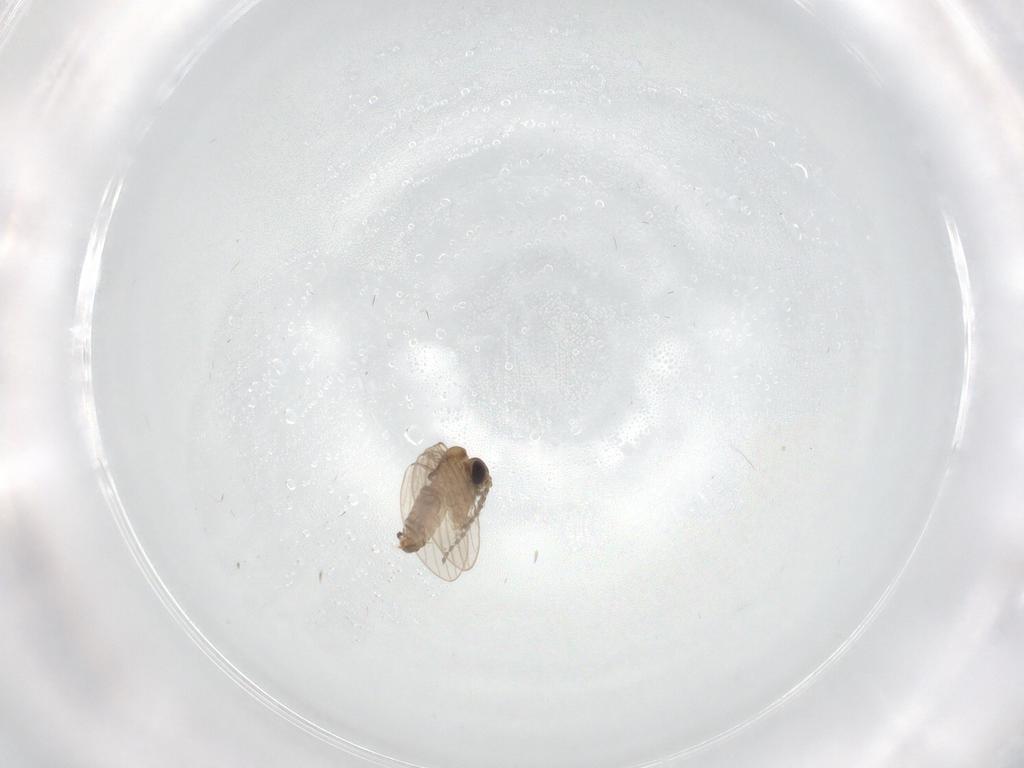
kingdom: Animalia
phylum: Arthropoda
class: Insecta
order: Diptera
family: Psychodidae
